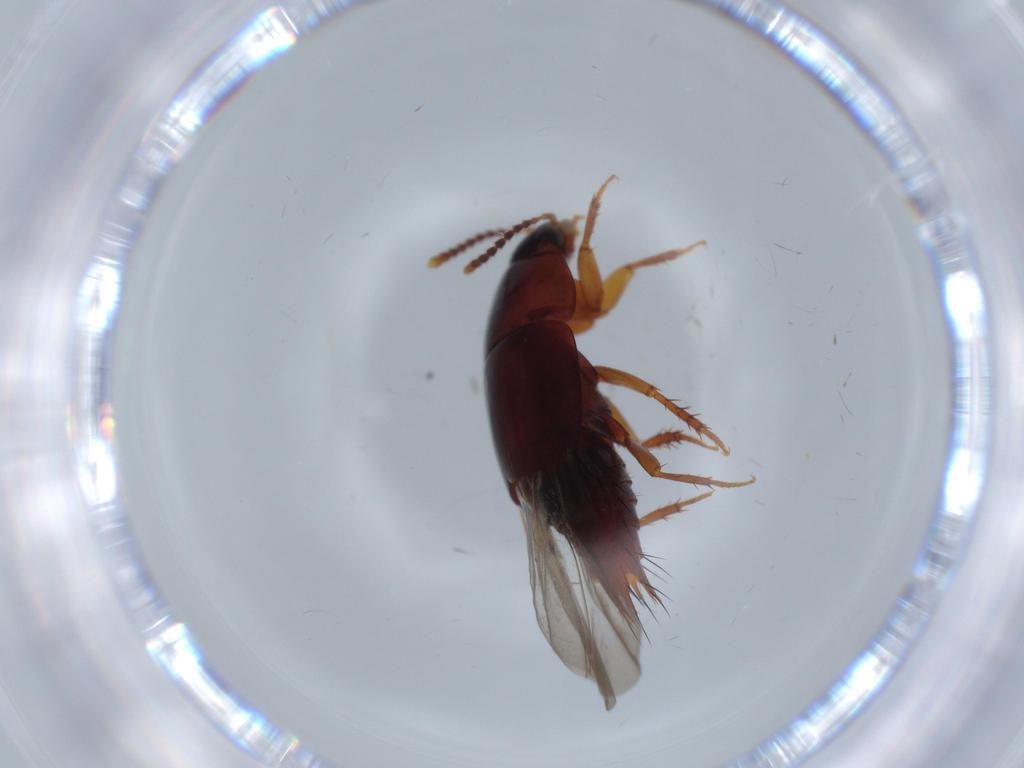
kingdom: Animalia
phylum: Arthropoda
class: Insecta
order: Coleoptera
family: Staphylinidae
